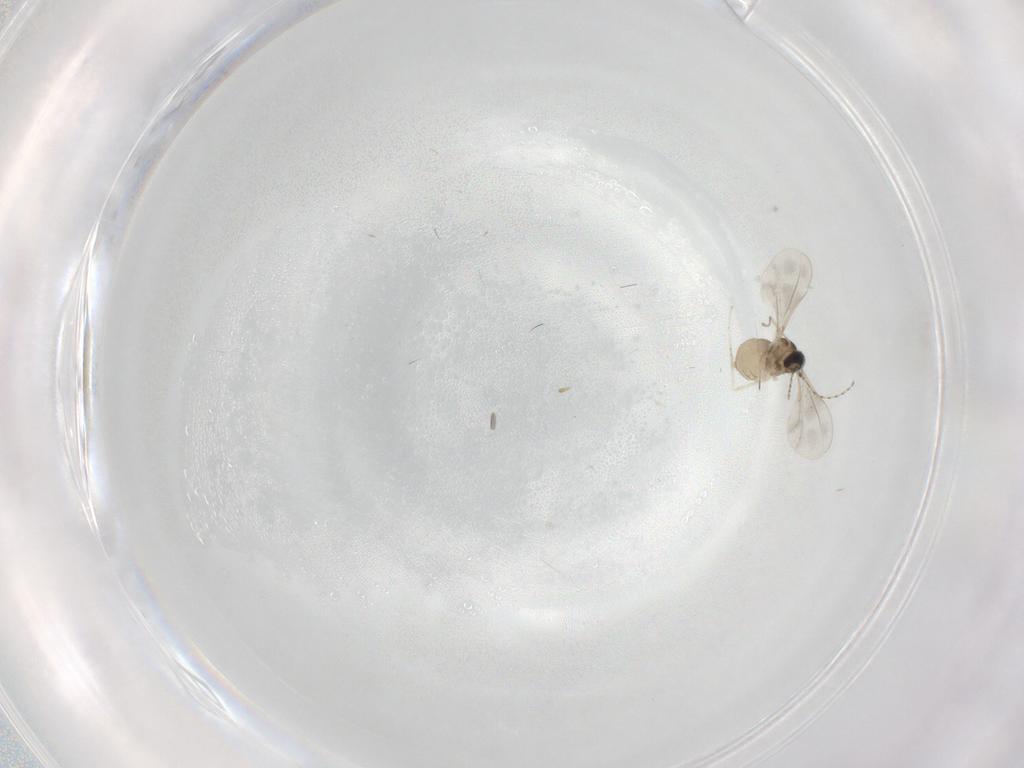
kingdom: Animalia
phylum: Arthropoda
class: Insecta
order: Diptera
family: Cecidomyiidae
